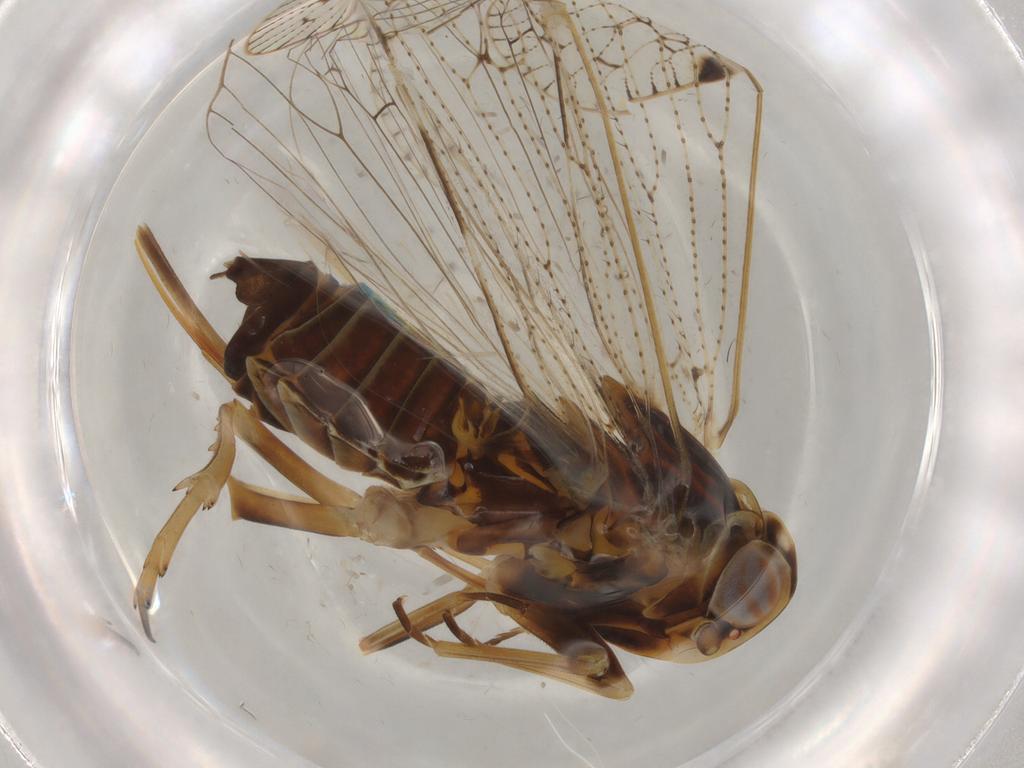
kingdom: Animalia
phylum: Arthropoda
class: Insecta
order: Hemiptera
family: Cixiidae
